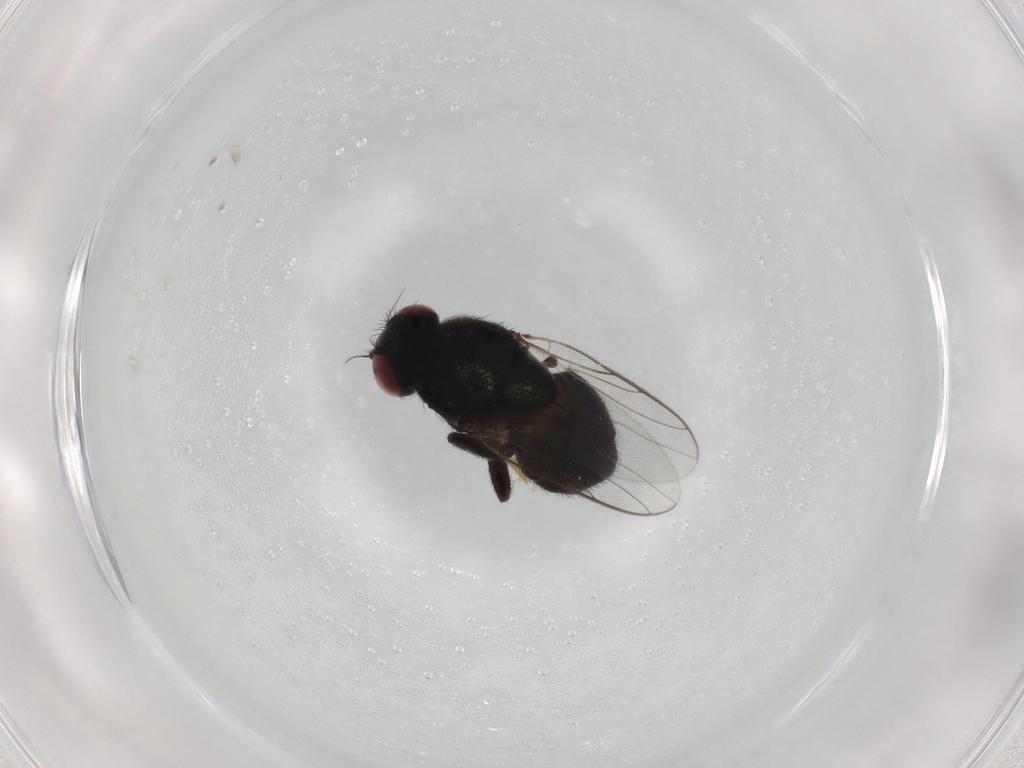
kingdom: Animalia
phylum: Arthropoda
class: Insecta
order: Diptera
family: Chloropidae
